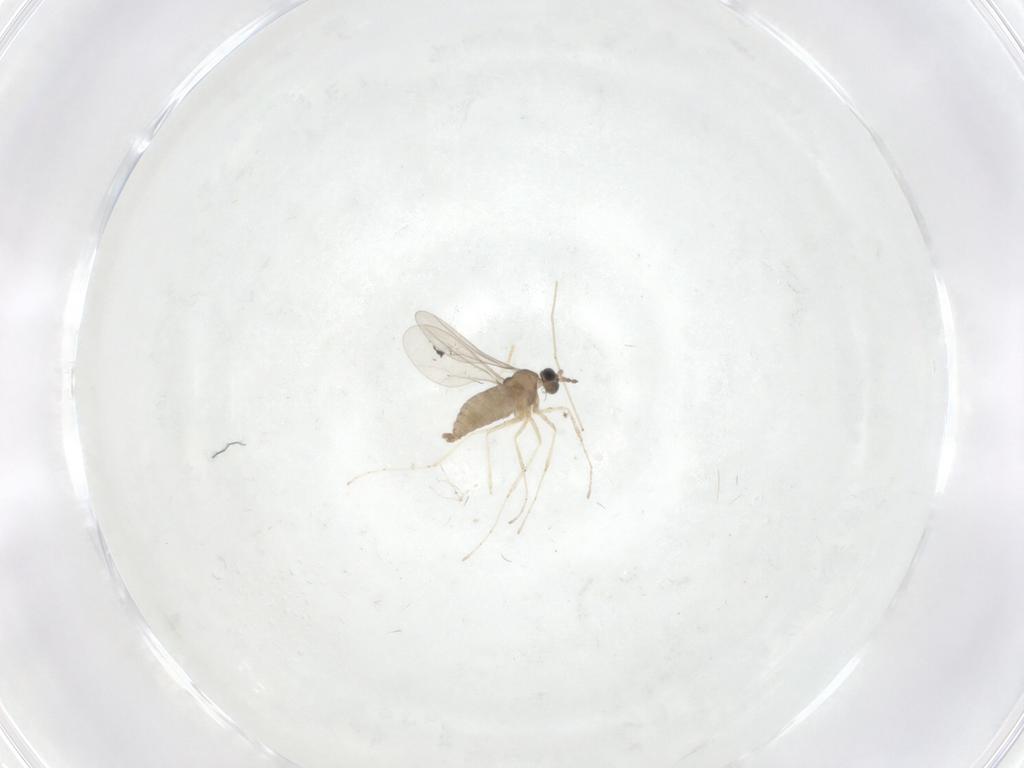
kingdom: Animalia
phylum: Arthropoda
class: Insecta
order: Diptera
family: Cecidomyiidae
